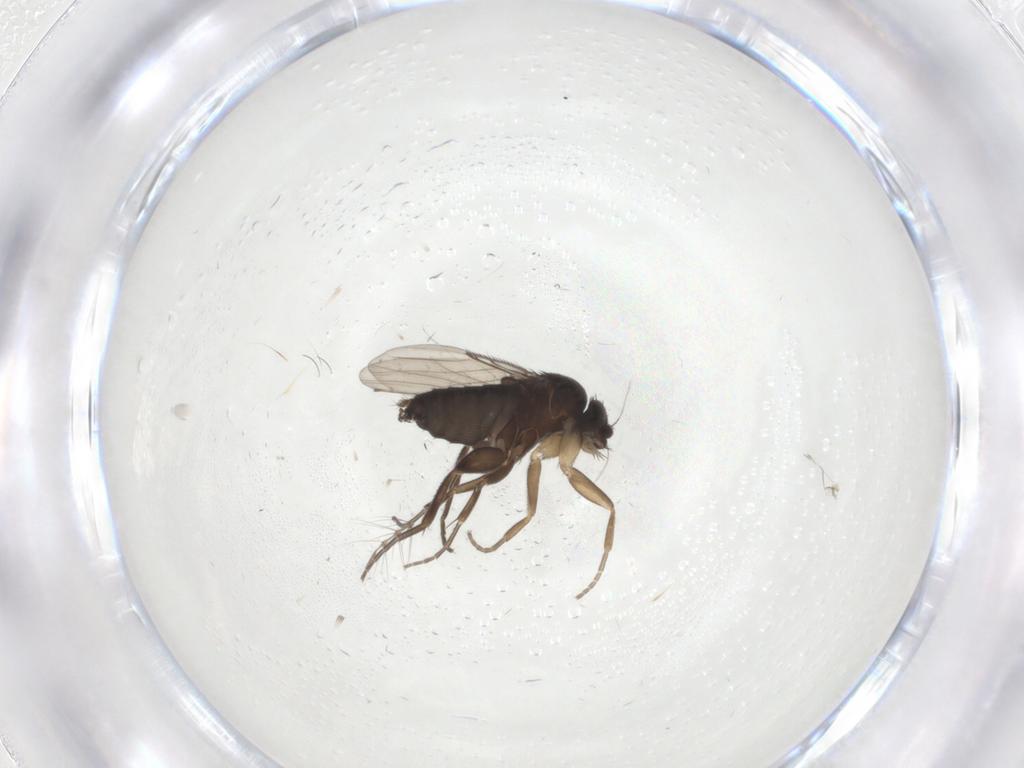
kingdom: Animalia
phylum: Arthropoda
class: Insecta
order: Diptera
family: Phoridae
